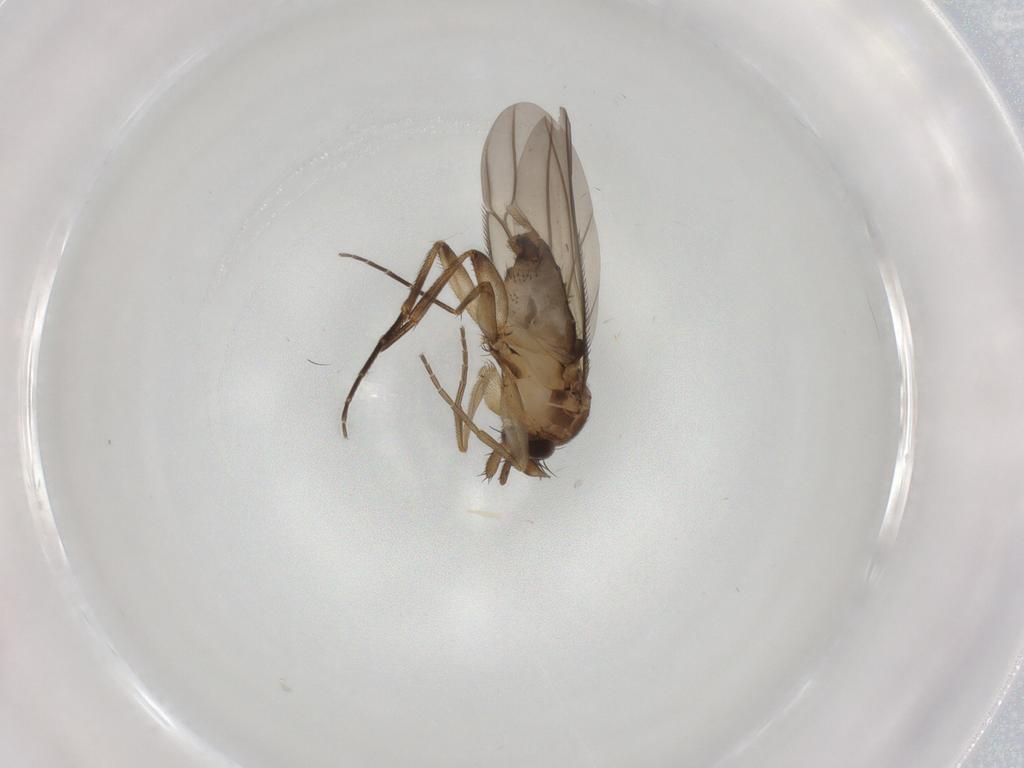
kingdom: Animalia
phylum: Arthropoda
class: Insecta
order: Diptera
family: Phoridae
